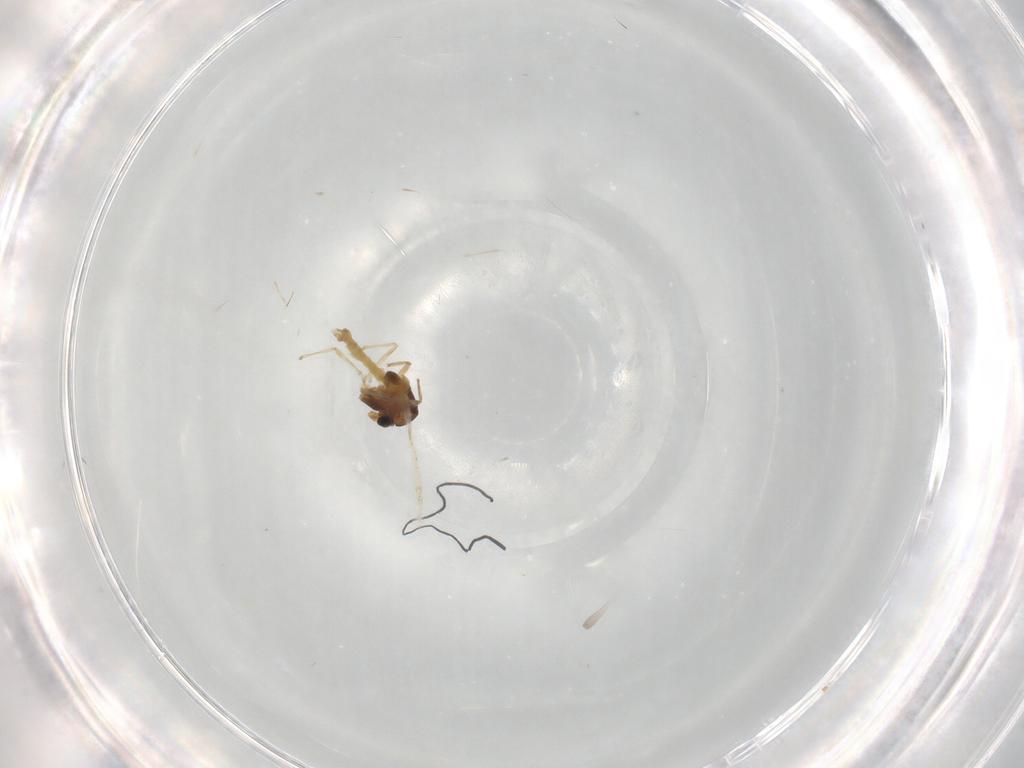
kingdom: Animalia
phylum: Arthropoda
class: Insecta
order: Diptera
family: Chironomidae
